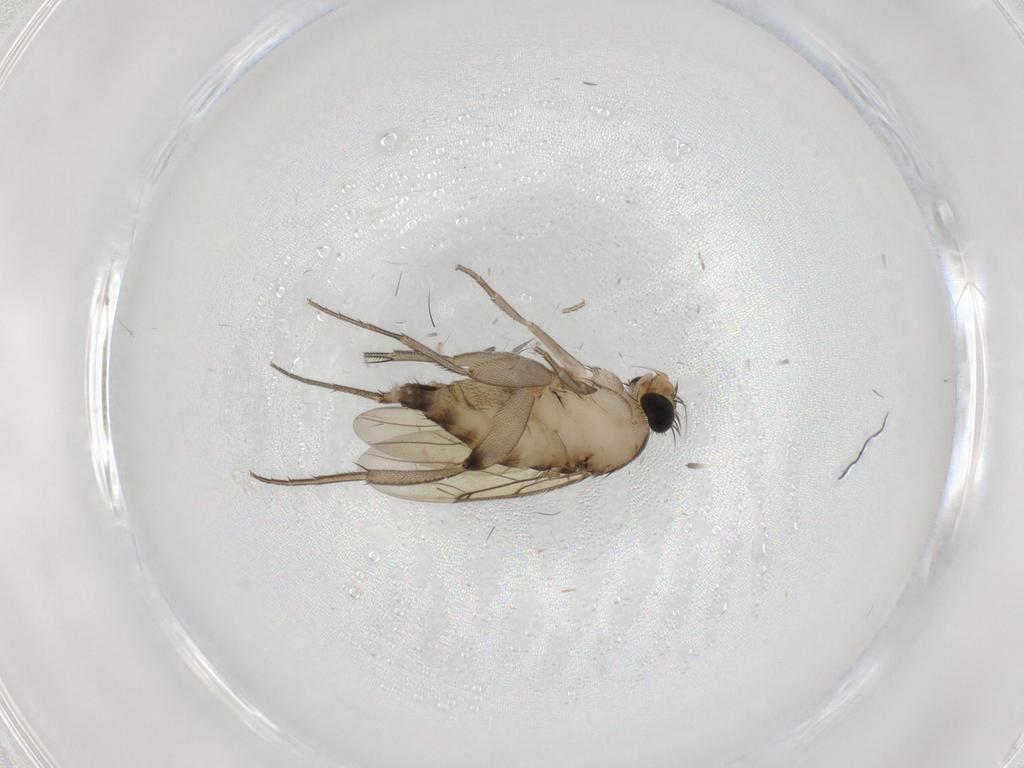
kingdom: Animalia
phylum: Arthropoda
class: Insecta
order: Diptera
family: Phoridae
